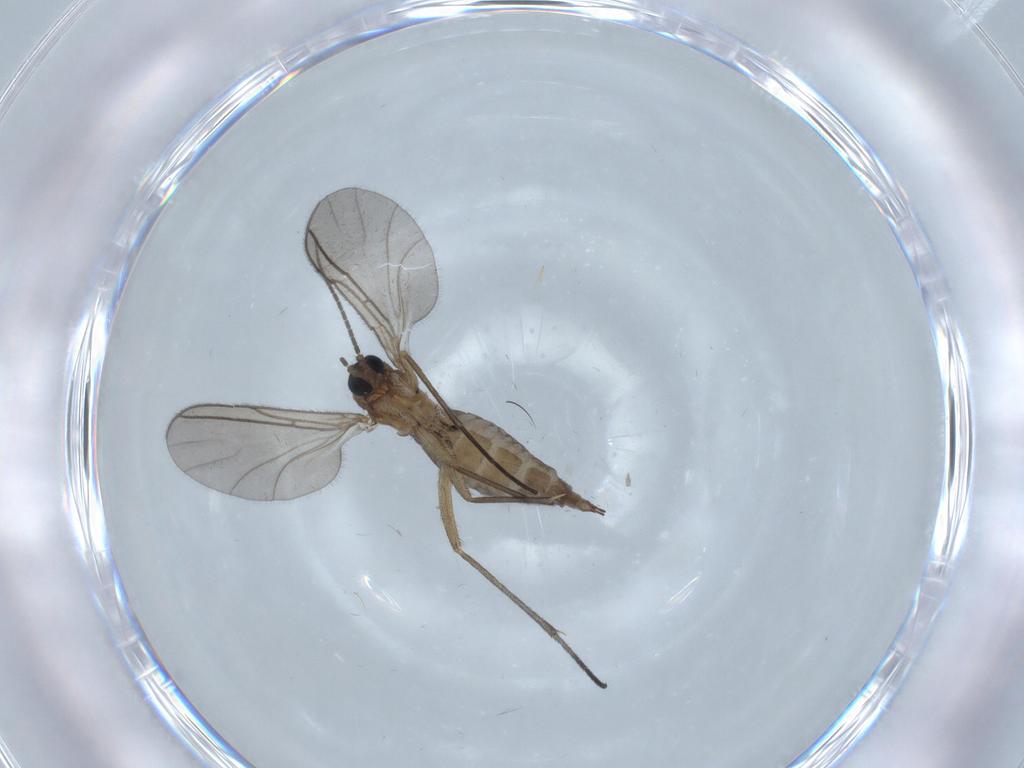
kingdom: Animalia
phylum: Arthropoda
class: Insecta
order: Diptera
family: Sciaridae
